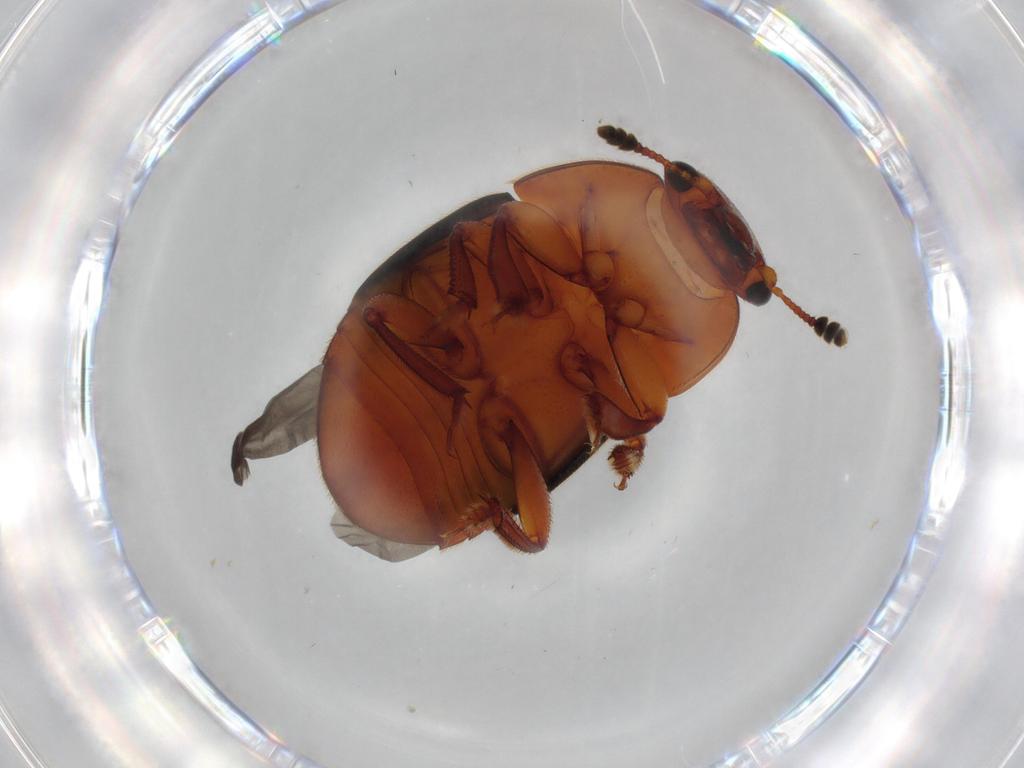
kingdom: Animalia
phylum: Arthropoda
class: Insecta
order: Coleoptera
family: Nitidulidae
